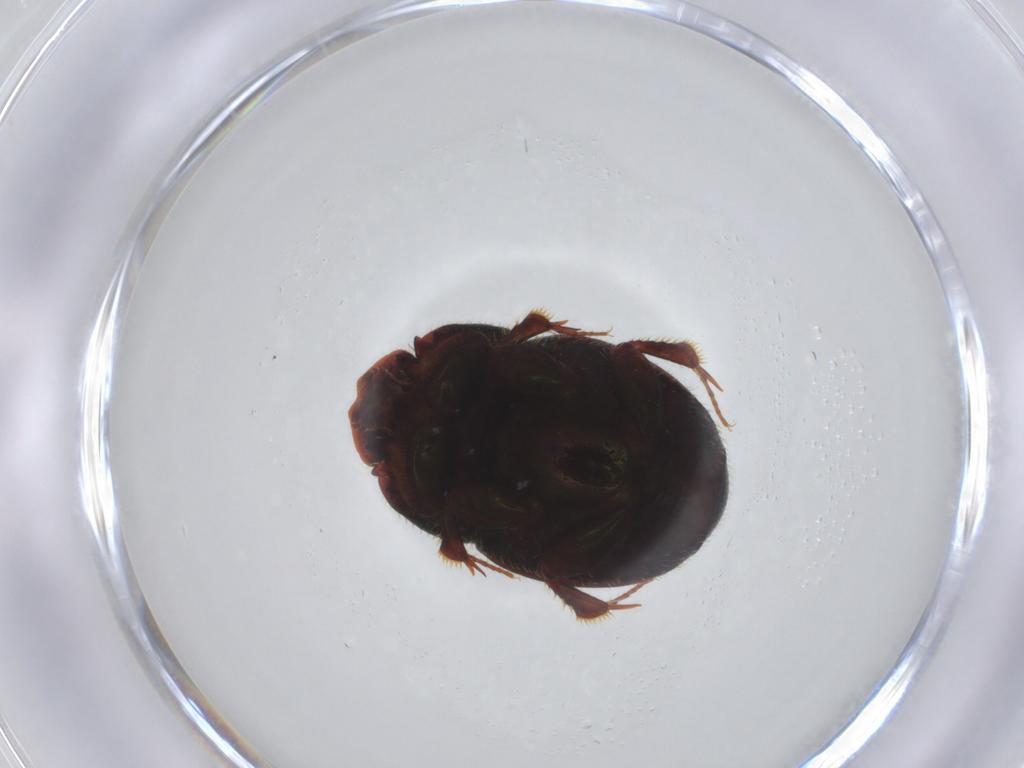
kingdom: Animalia
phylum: Arthropoda
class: Insecta
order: Coleoptera
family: Scarabaeidae
